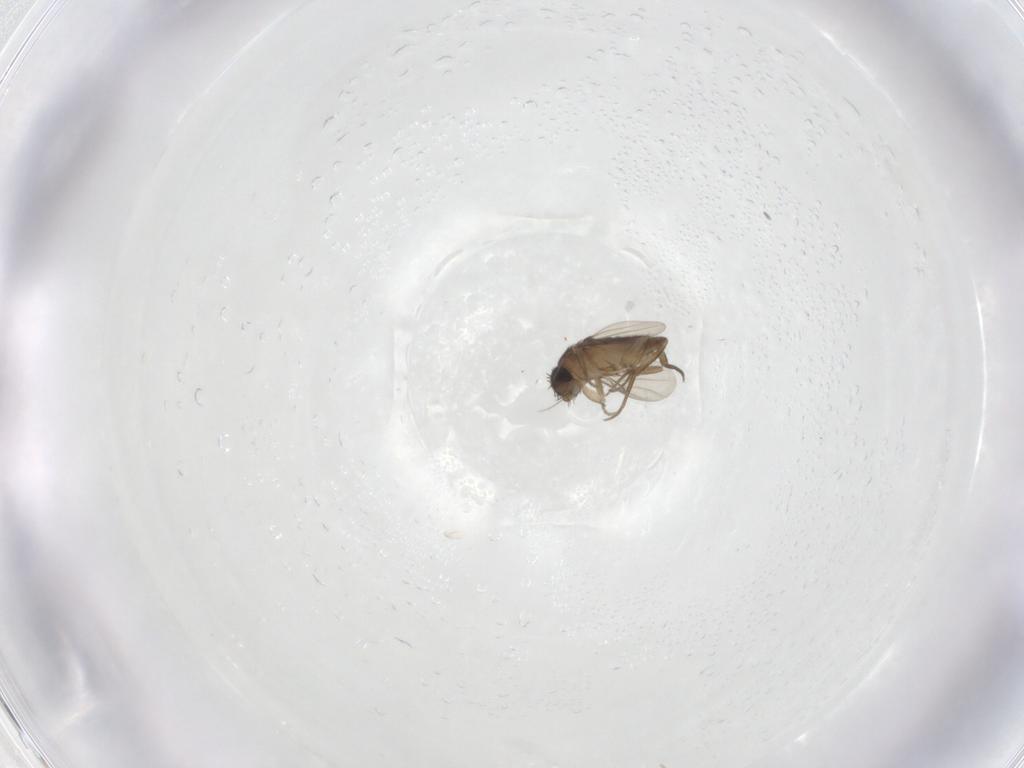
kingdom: Animalia
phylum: Arthropoda
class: Insecta
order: Diptera
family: Phoridae
